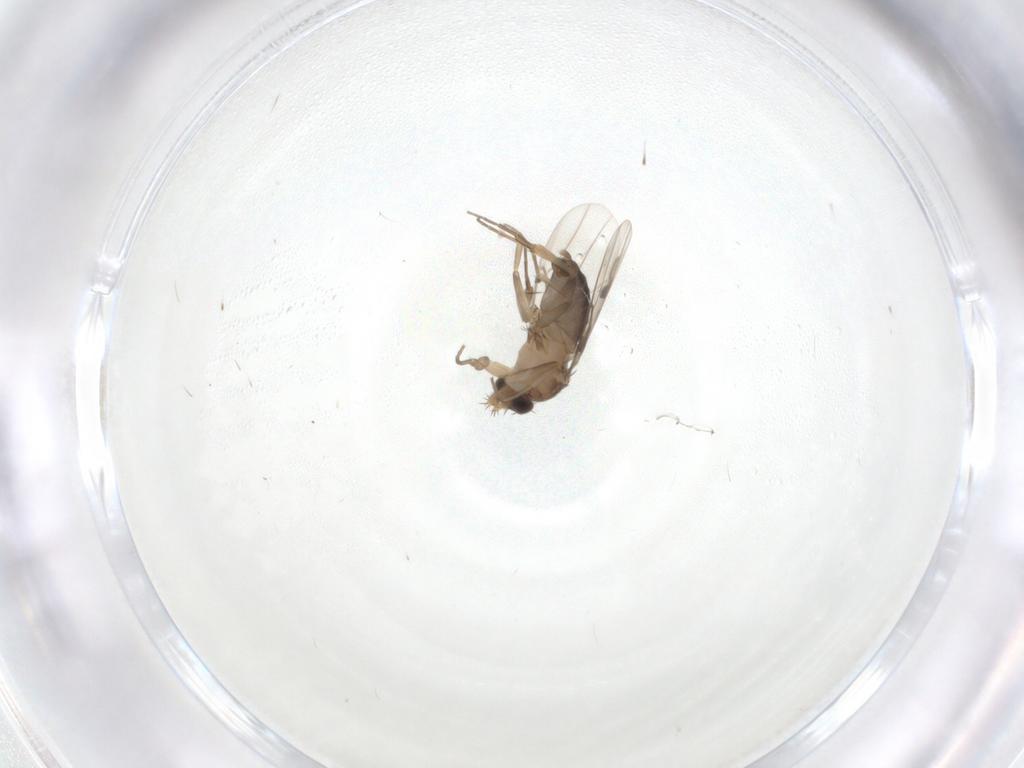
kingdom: Animalia
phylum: Arthropoda
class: Insecta
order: Diptera
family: Phoridae
